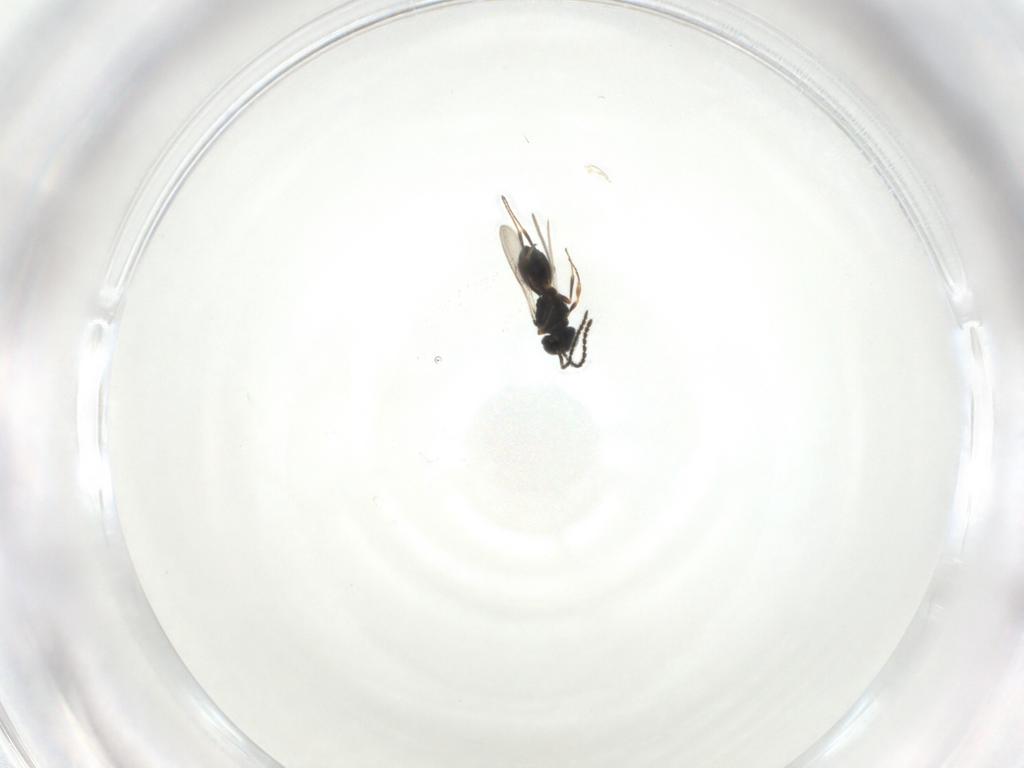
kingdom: Animalia
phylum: Arthropoda
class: Insecta
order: Hymenoptera
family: Scelionidae
